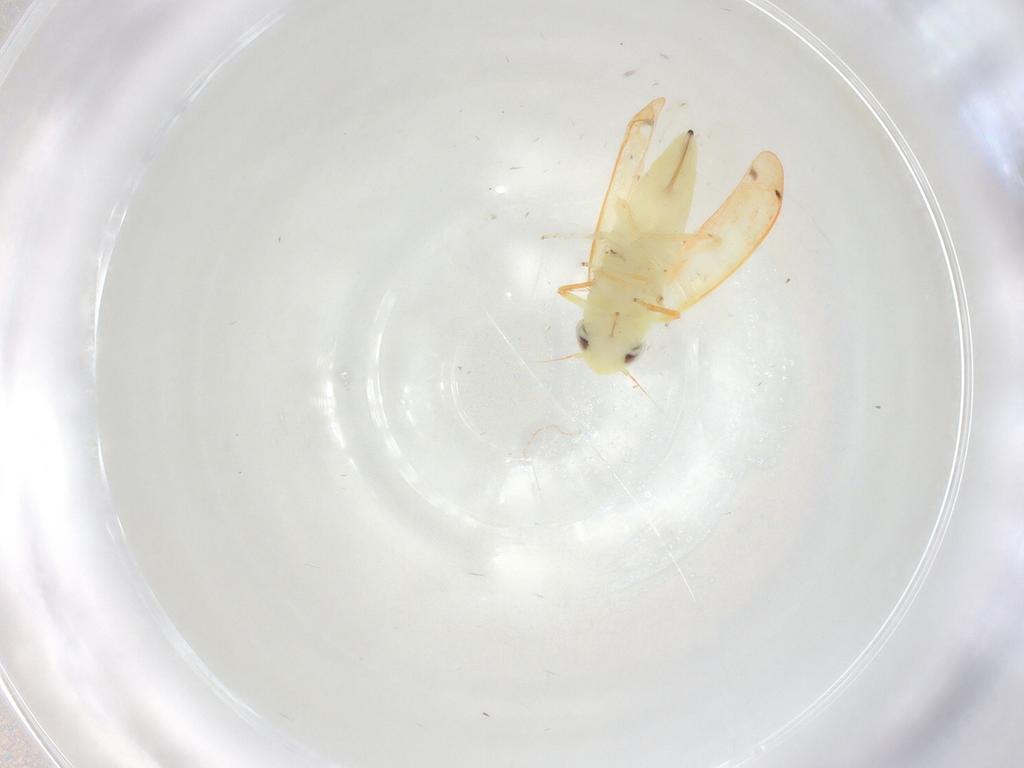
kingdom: Animalia
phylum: Arthropoda
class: Insecta
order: Hemiptera
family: Cicadellidae
